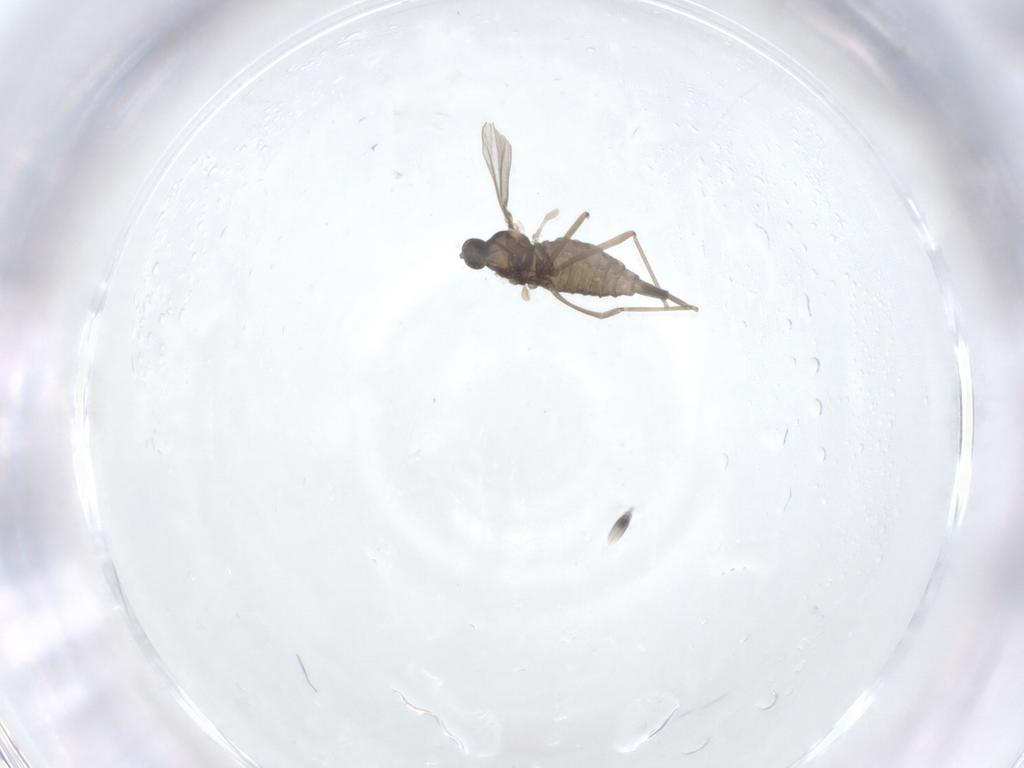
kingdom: Animalia
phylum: Arthropoda
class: Insecta
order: Diptera
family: Cecidomyiidae
